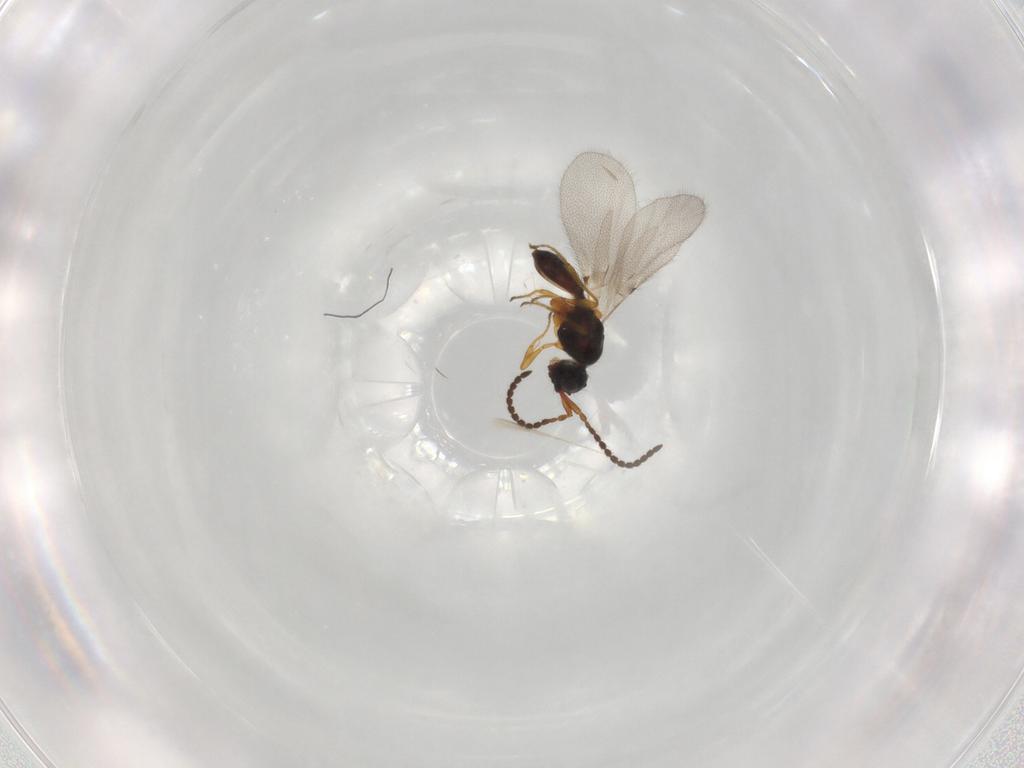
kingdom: Animalia
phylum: Arthropoda
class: Insecta
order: Hymenoptera
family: Diapriidae
